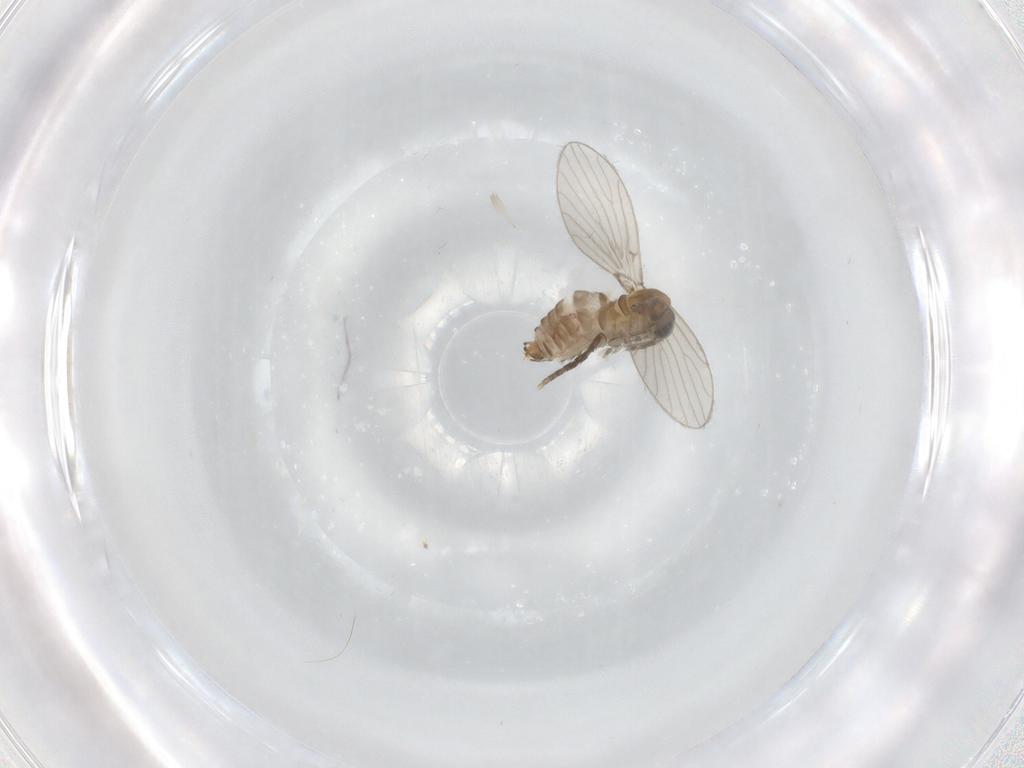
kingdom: Animalia
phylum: Arthropoda
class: Insecta
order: Diptera
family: Psychodidae
